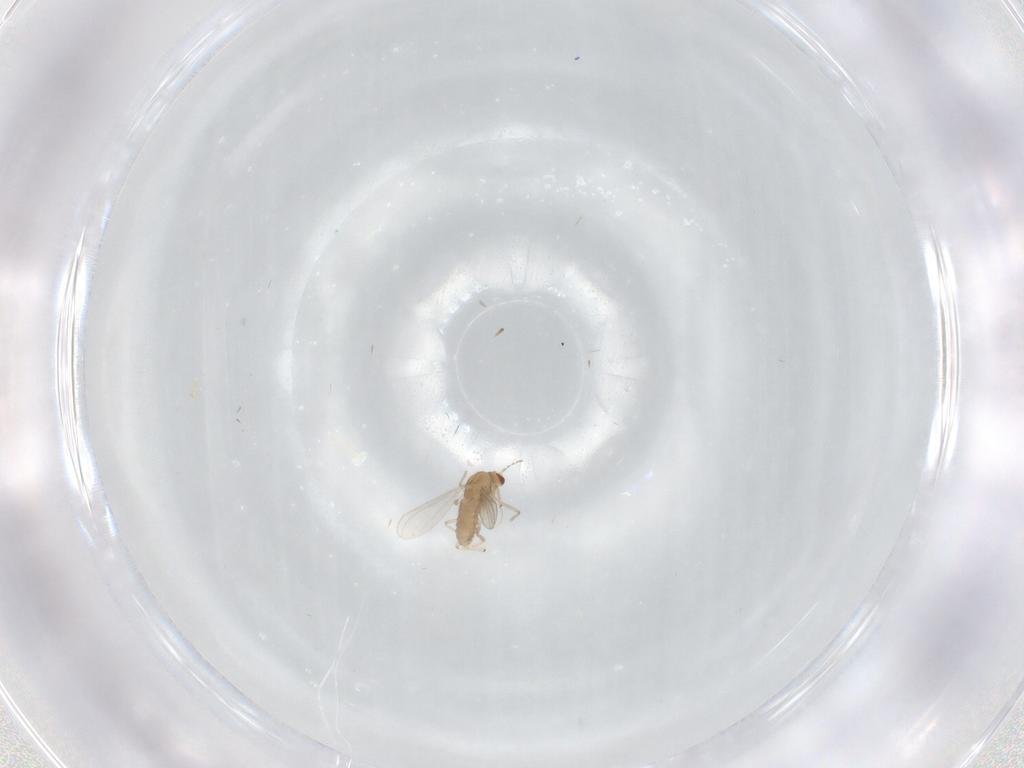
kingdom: Animalia
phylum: Arthropoda
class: Insecta
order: Diptera
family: Chironomidae
